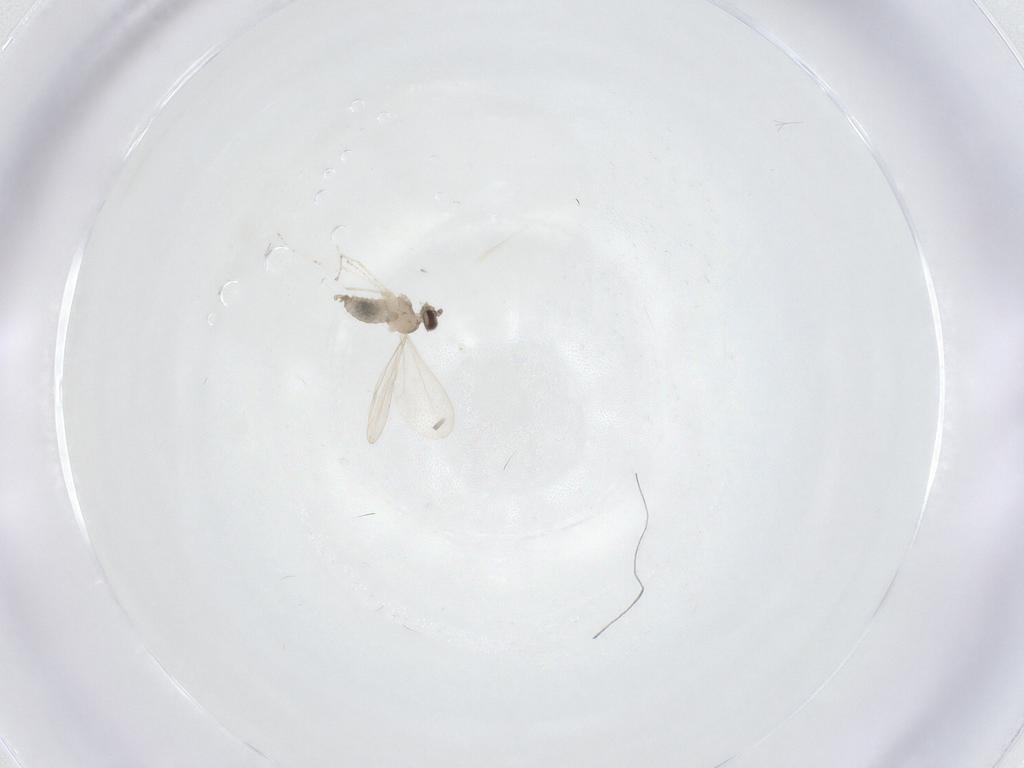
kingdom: Animalia
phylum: Arthropoda
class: Insecta
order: Diptera
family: Cecidomyiidae
